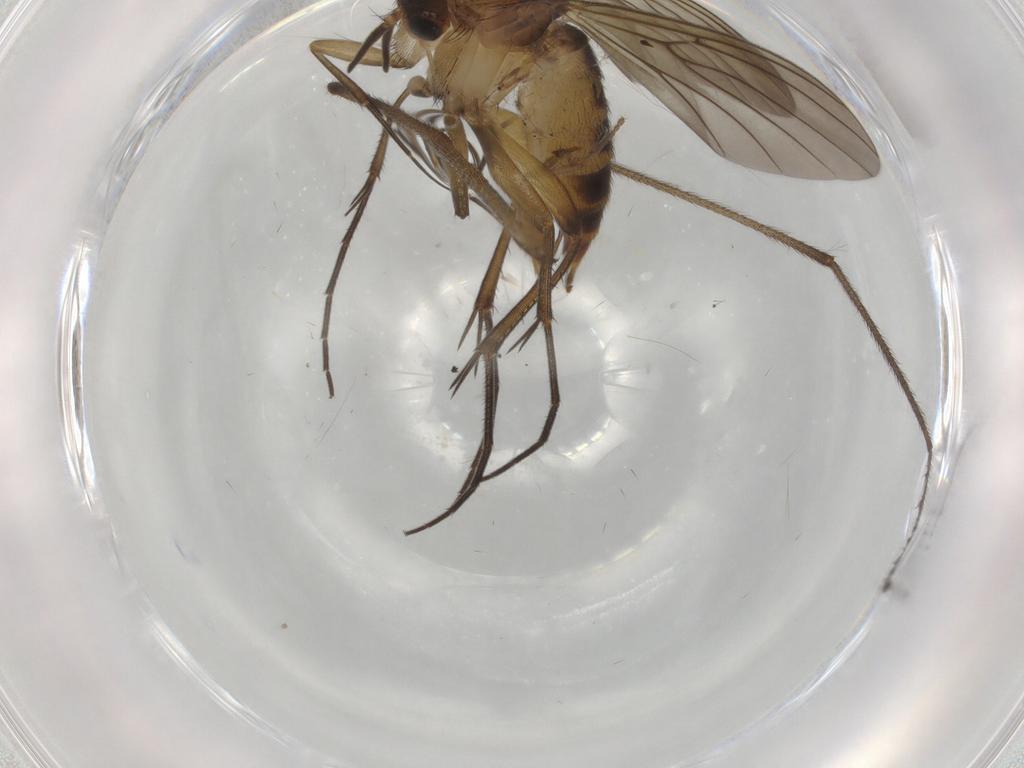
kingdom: Animalia
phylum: Arthropoda
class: Insecta
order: Diptera
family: Mycetophilidae
